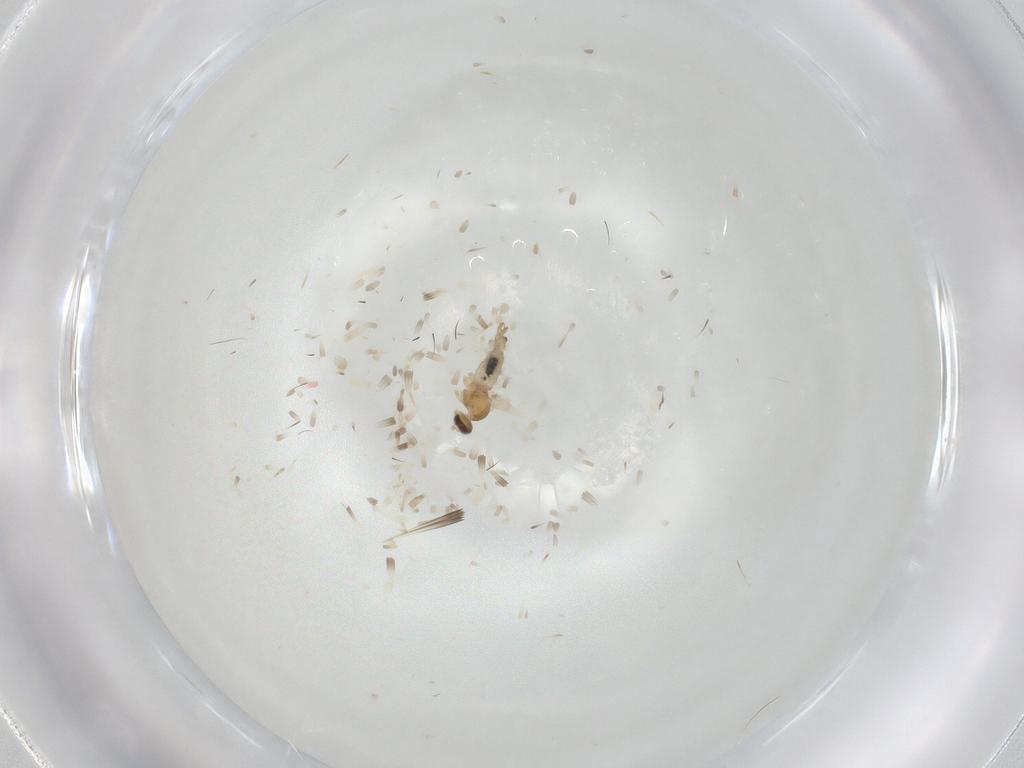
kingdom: Animalia
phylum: Arthropoda
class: Insecta
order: Diptera
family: Cecidomyiidae
